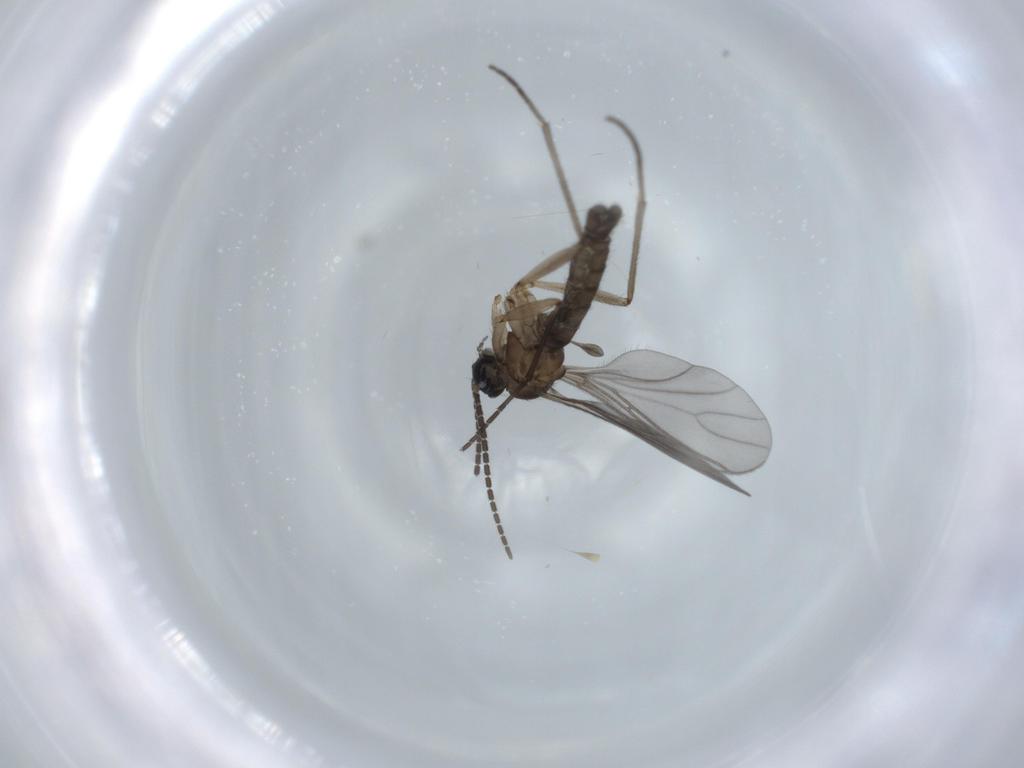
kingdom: Animalia
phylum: Arthropoda
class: Insecta
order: Diptera
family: Sciaridae
